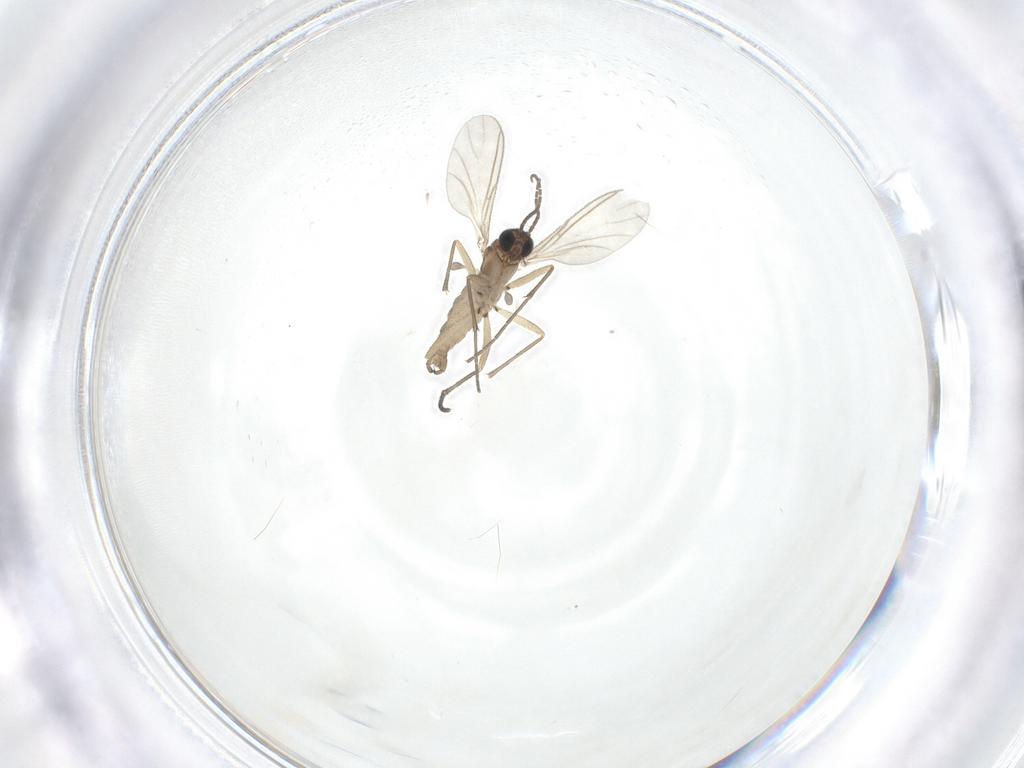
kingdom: Animalia
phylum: Arthropoda
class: Insecta
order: Diptera
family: Sciaridae
